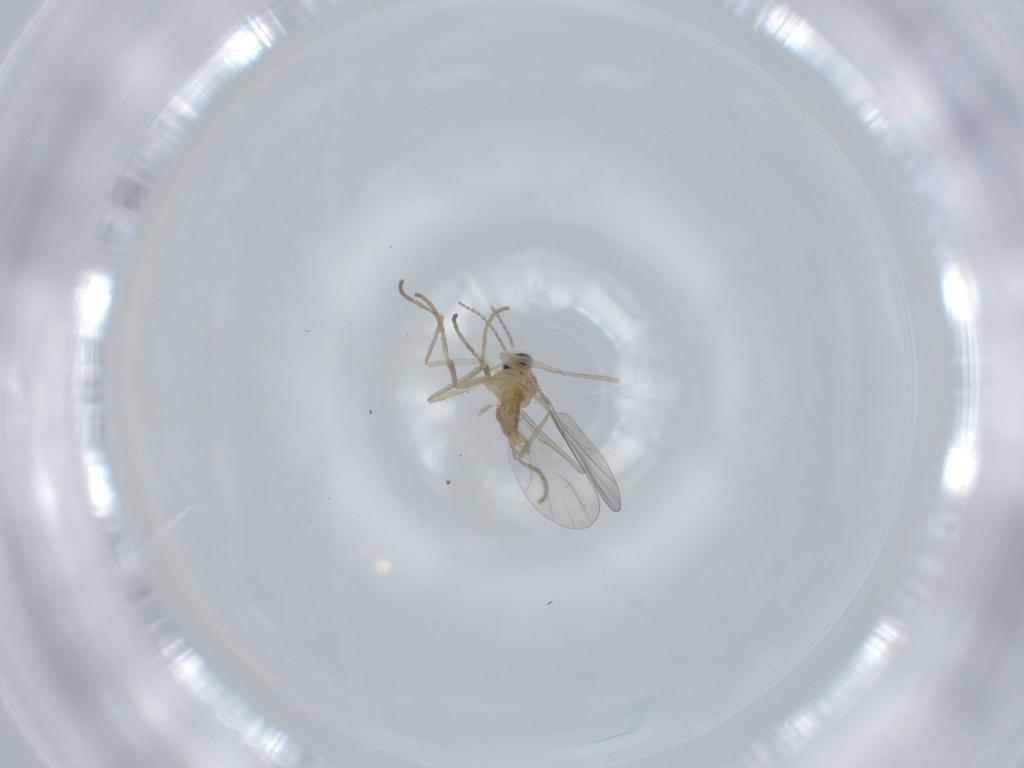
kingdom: Animalia
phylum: Arthropoda
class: Insecta
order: Diptera
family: Cecidomyiidae
